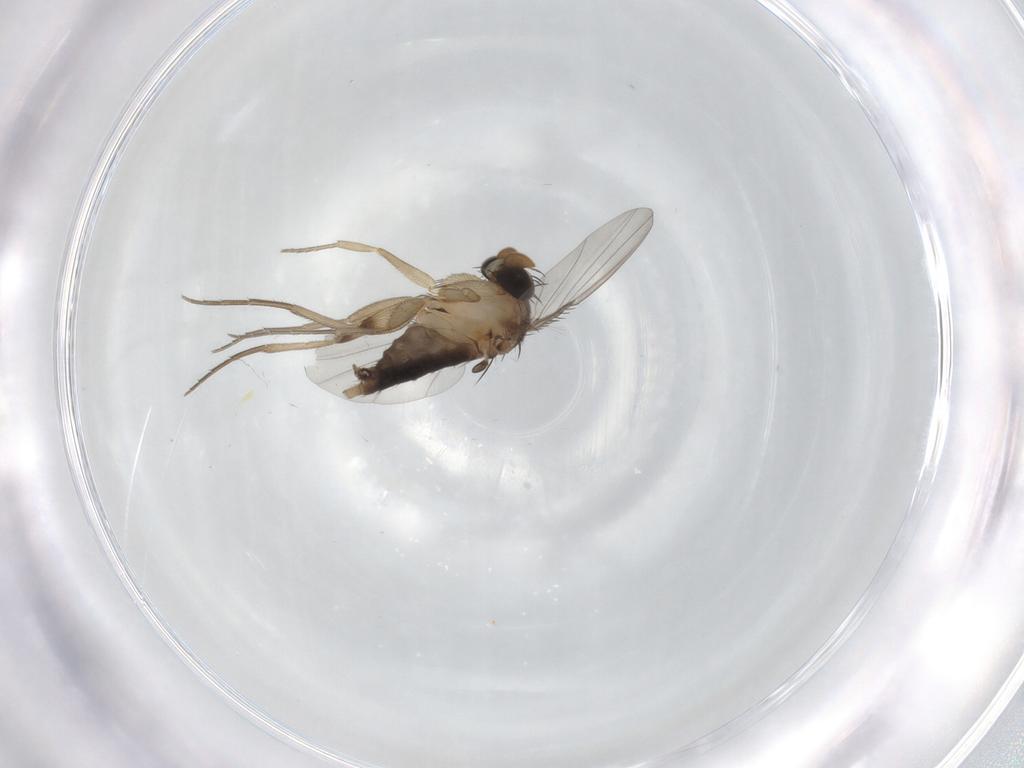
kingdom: Animalia
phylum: Arthropoda
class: Insecta
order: Diptera
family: Phoridae
